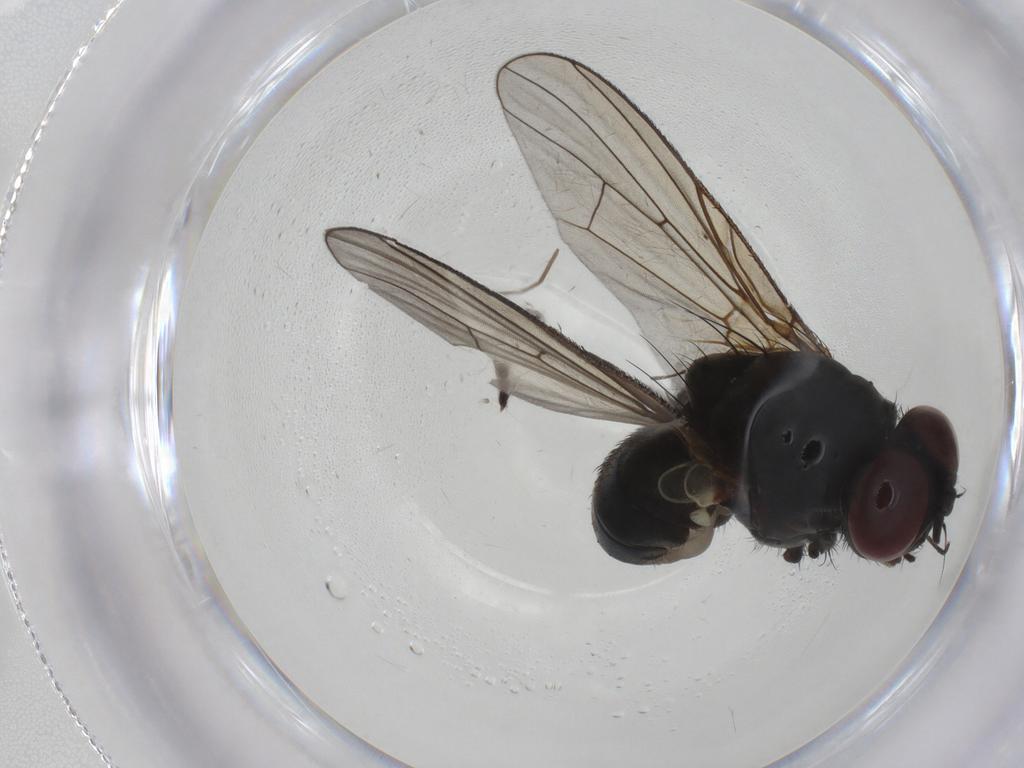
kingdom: Animalia
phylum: Arthropoda
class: Insecta
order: Diptera
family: Muscidae
